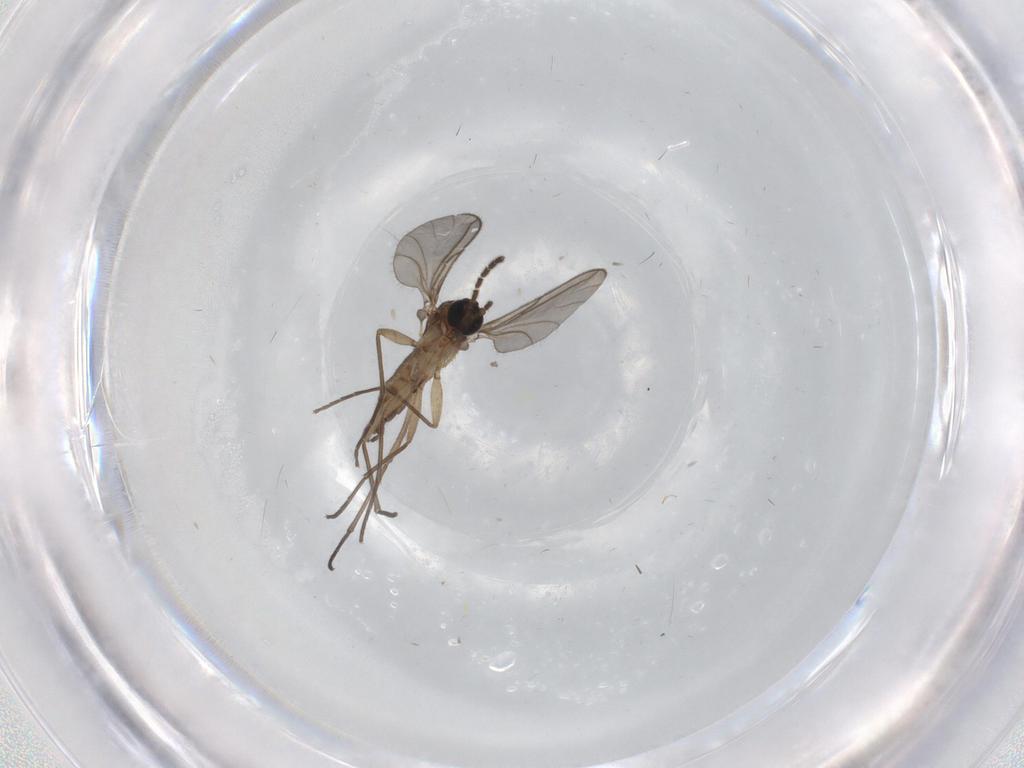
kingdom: Animalia
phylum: Arthropoda
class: Insecta
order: Diptera
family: Sciaridae
